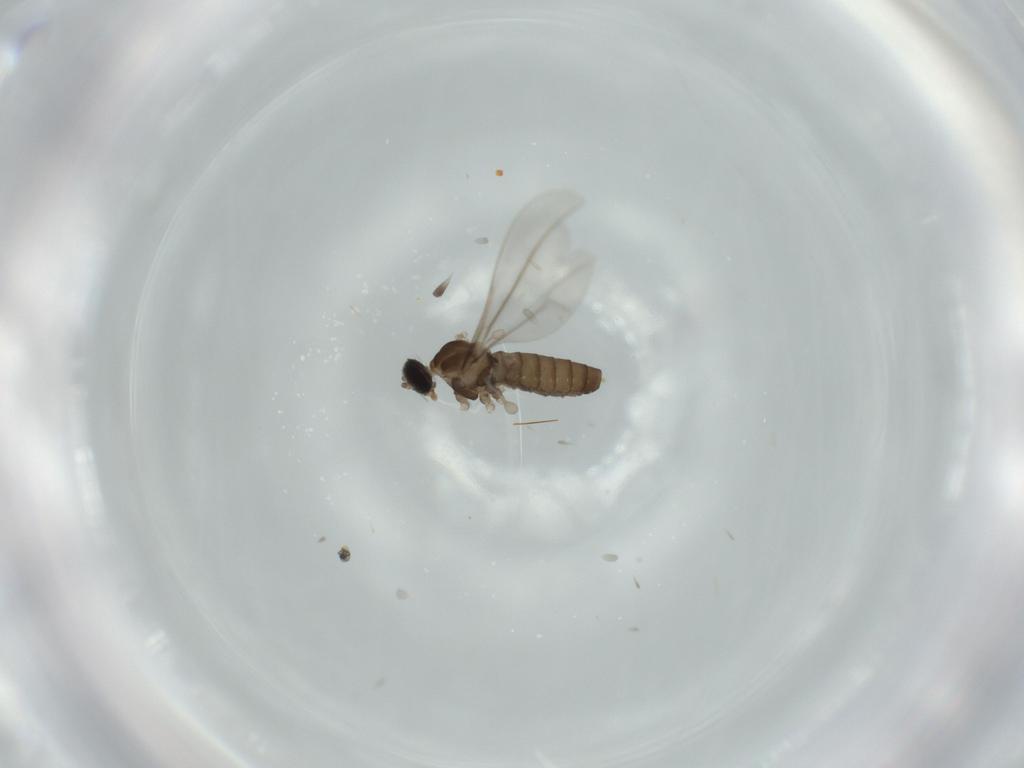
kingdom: Animalia
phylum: Arthropoda
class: Insecta
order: Diptera
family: Cecidomyiidae
